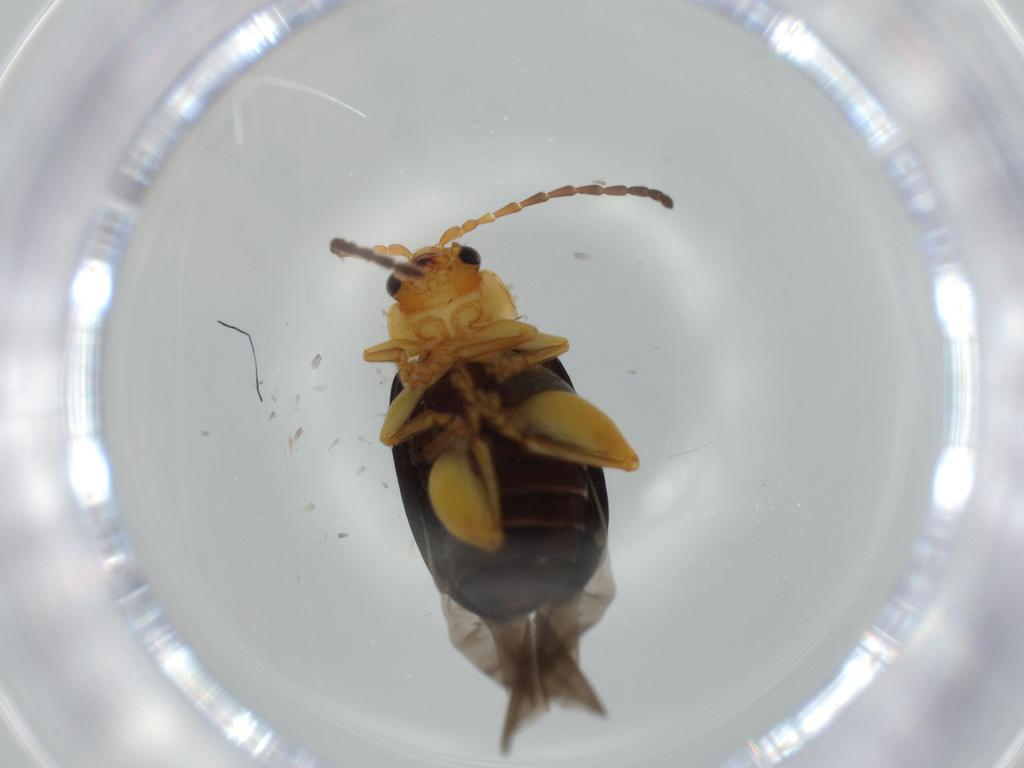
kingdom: Animalia
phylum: Arthropoda
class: Insecta
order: Coleoptera
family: Chrysomelidae
